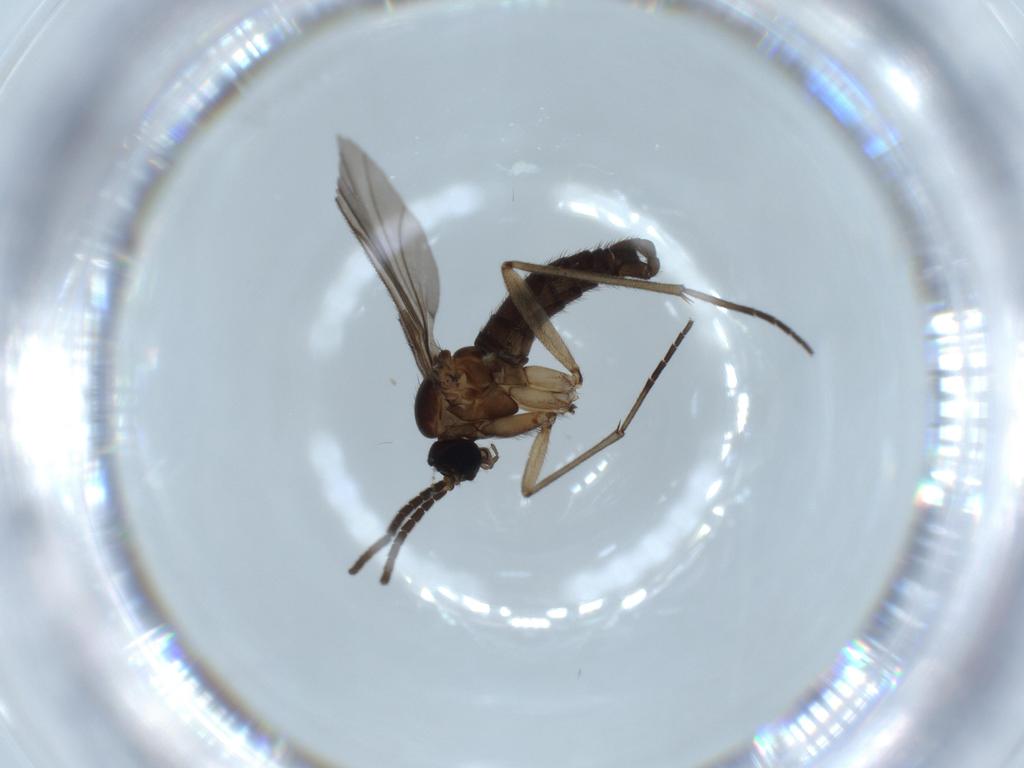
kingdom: Animalia
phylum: Arthropoda
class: Insecta
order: Diptera
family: Sciaridae
